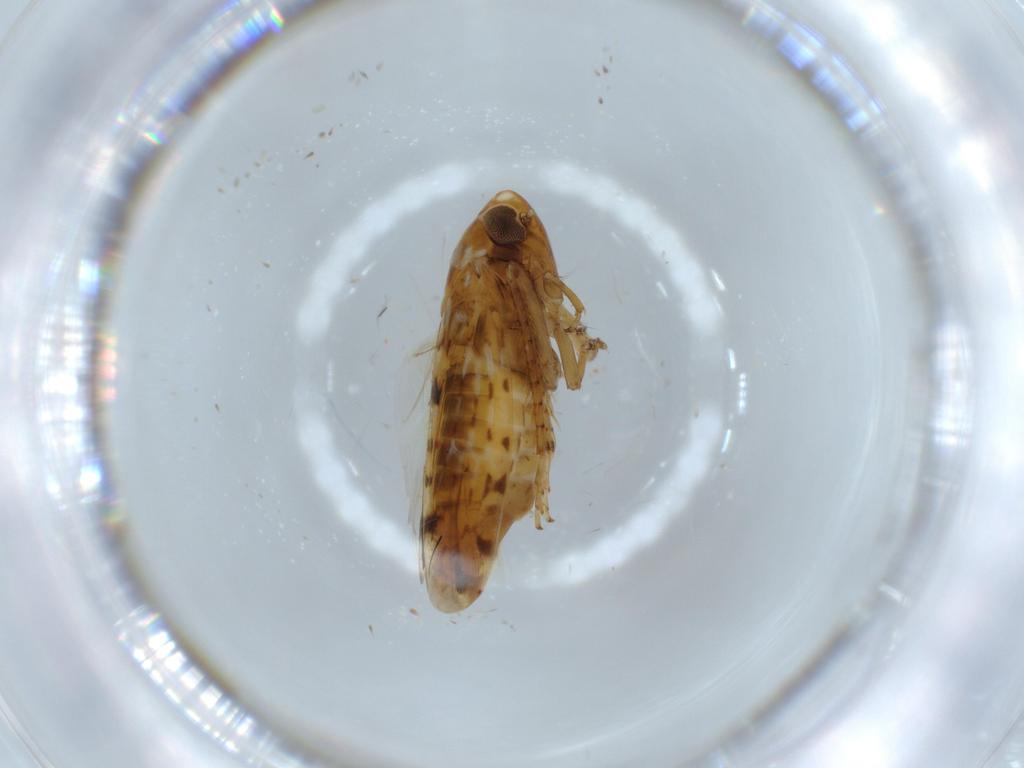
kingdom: Animalia
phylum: Arthropoda
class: Insecta
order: Hemiptera
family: Cicadellidae
